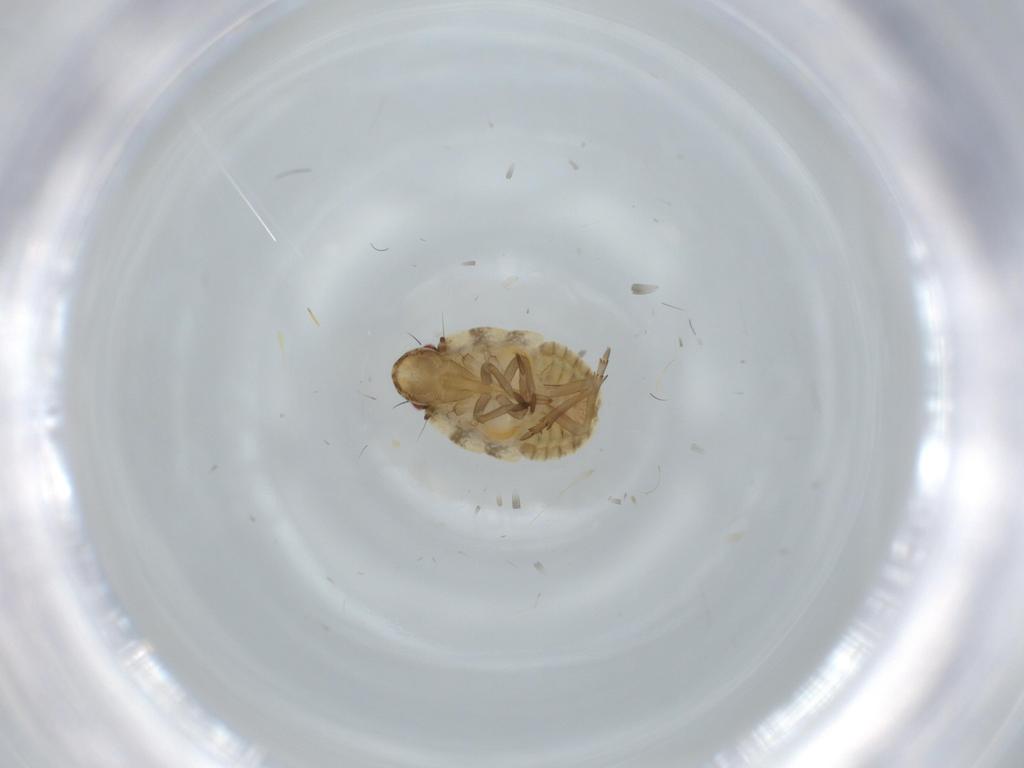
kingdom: Animalia
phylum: Arthropoda
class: Insecta
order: Hemiptera
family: Flatidae
